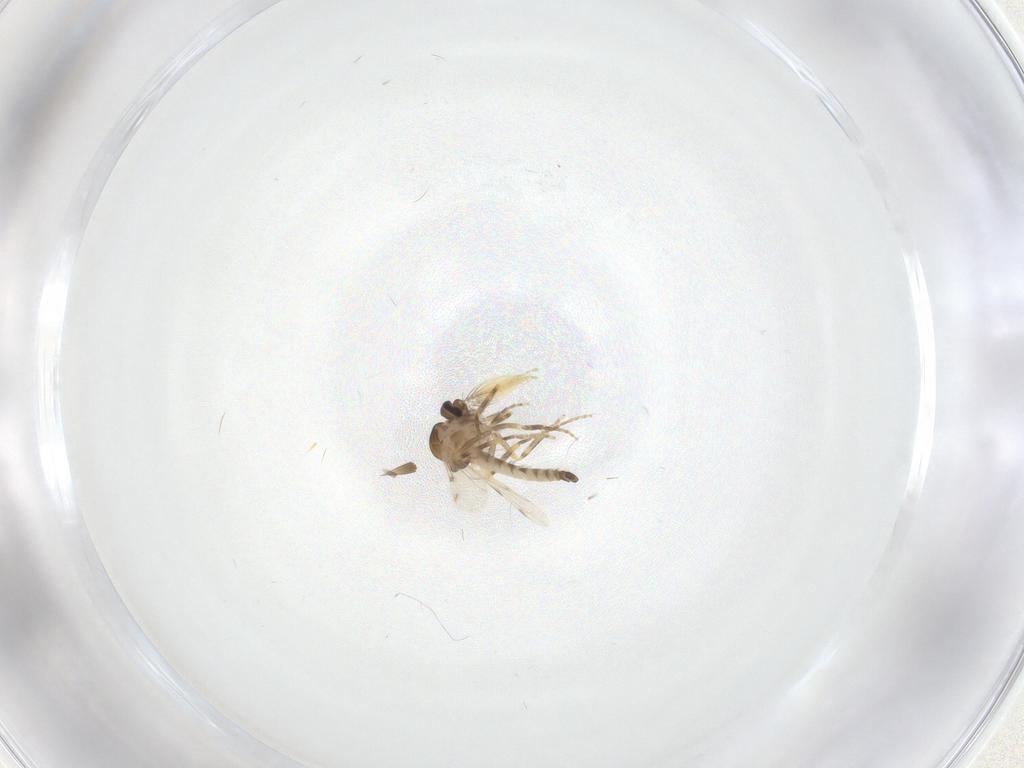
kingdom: Animalia
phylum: Arthropoda
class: Insecta
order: Diptera
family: Ceratopogonidae
